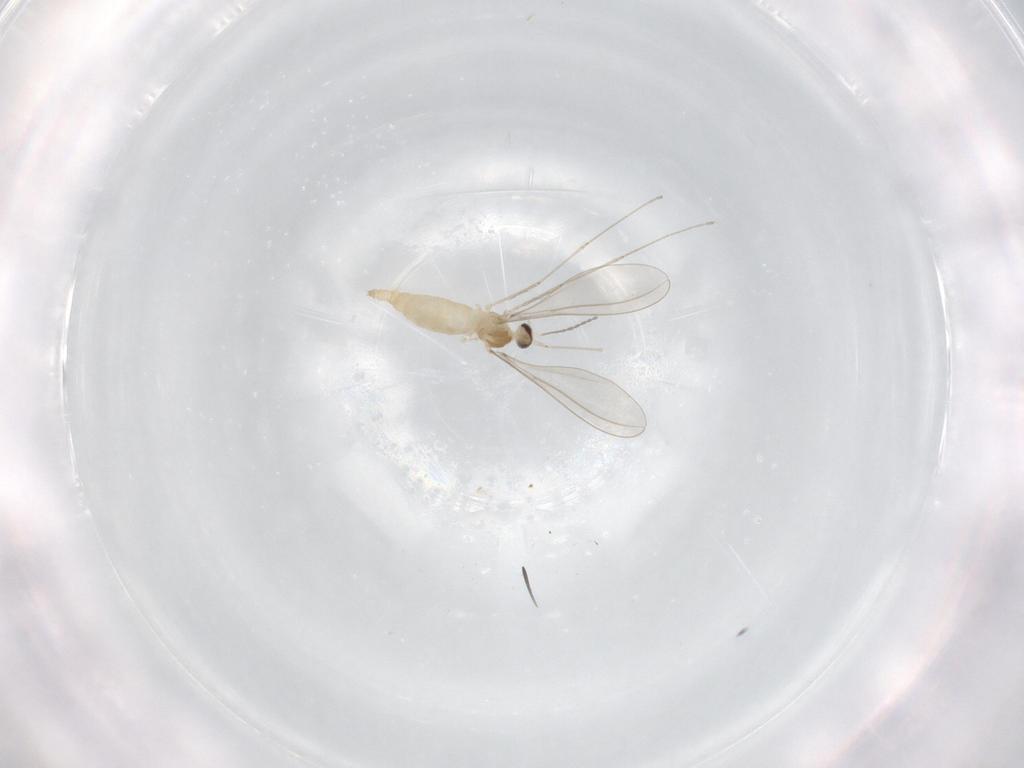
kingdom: Animalia
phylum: Arthropoda
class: Insecta
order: Diptera
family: Cecidomyiidae
